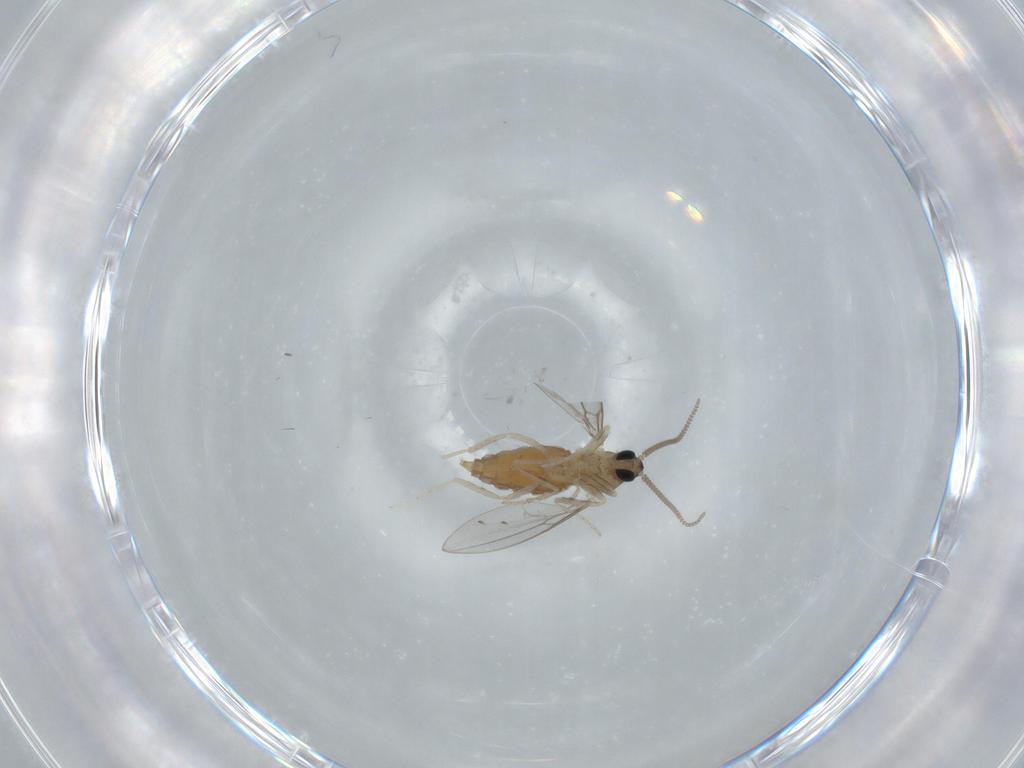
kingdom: Animalia
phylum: Arthropoda
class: Insecta
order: Diptera
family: Cecidomyiidae
